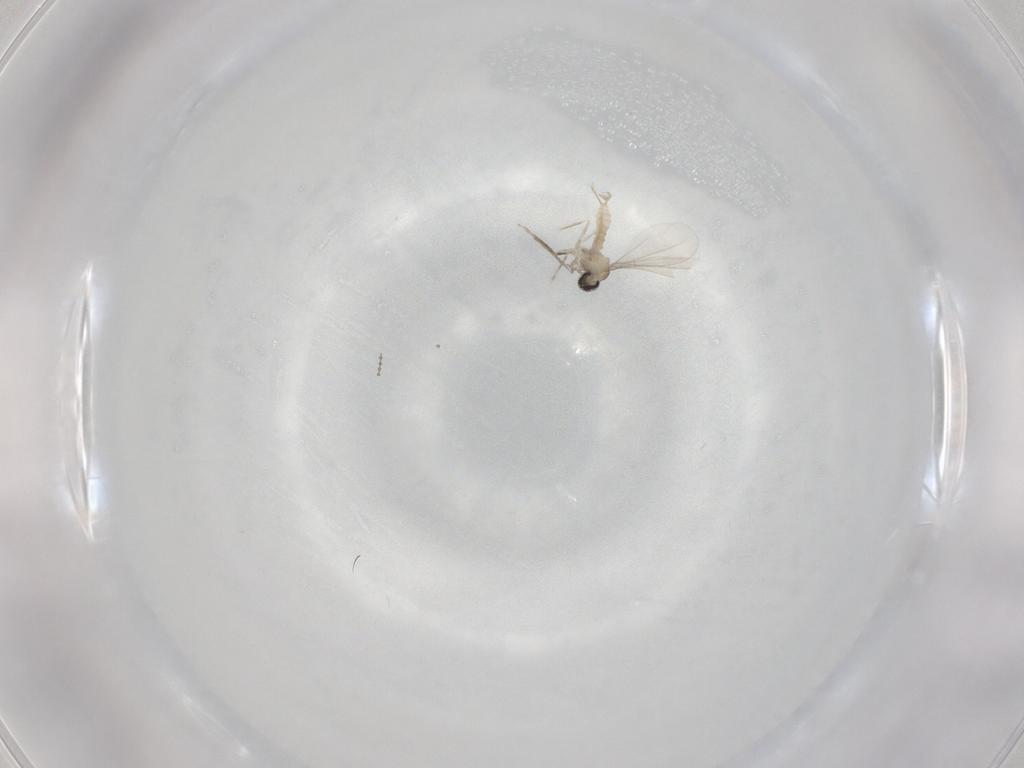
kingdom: Animalia
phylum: Arthropoda
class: Insecta
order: Diptera
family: Cecidomyiidae
